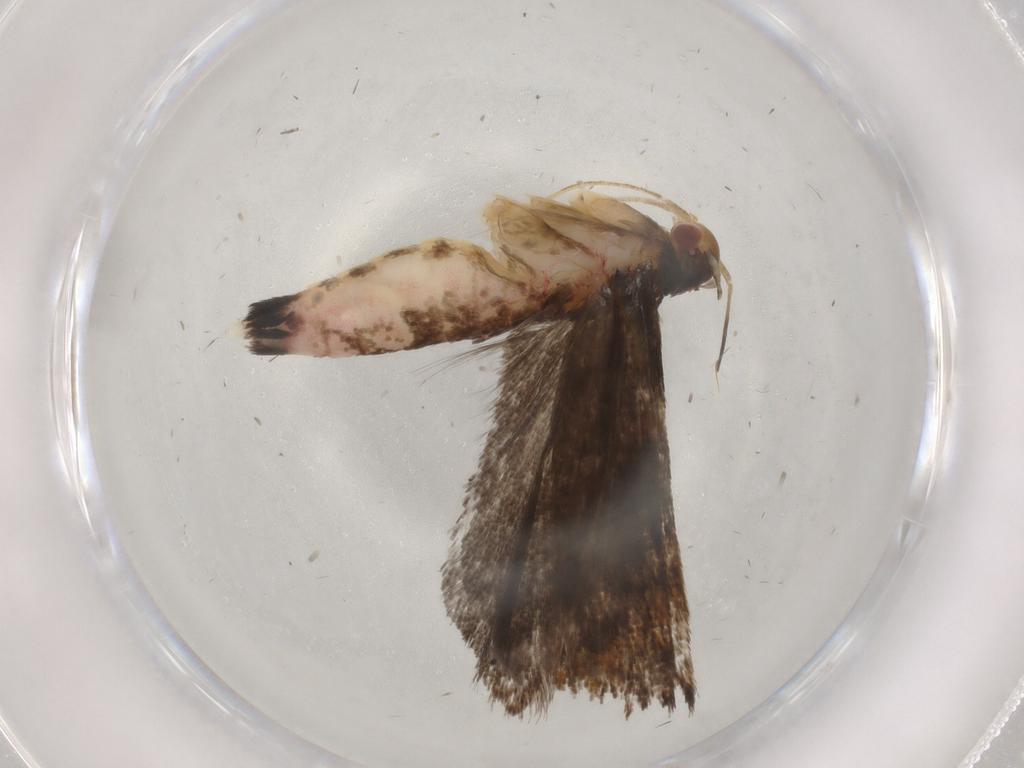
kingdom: Animalia
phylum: Arthropoda
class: Insecta
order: Lepidoptera
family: Gelechiidae
